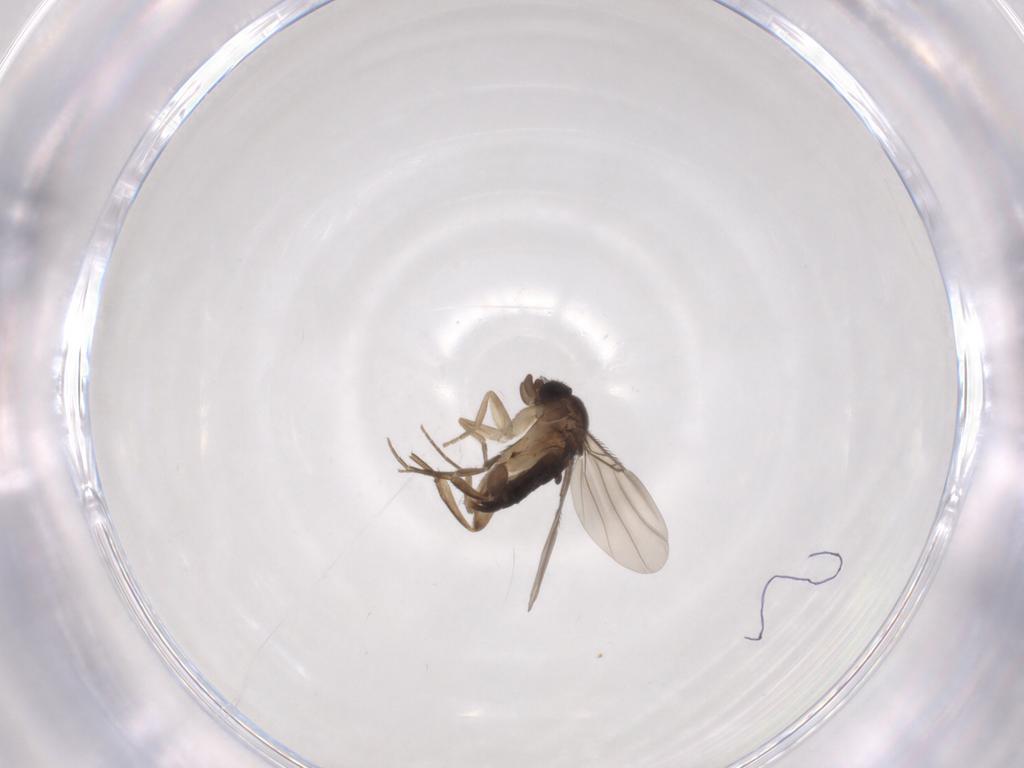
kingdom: Animalia
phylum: Arthropoda
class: Insecta
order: Diptera
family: Phoridae
